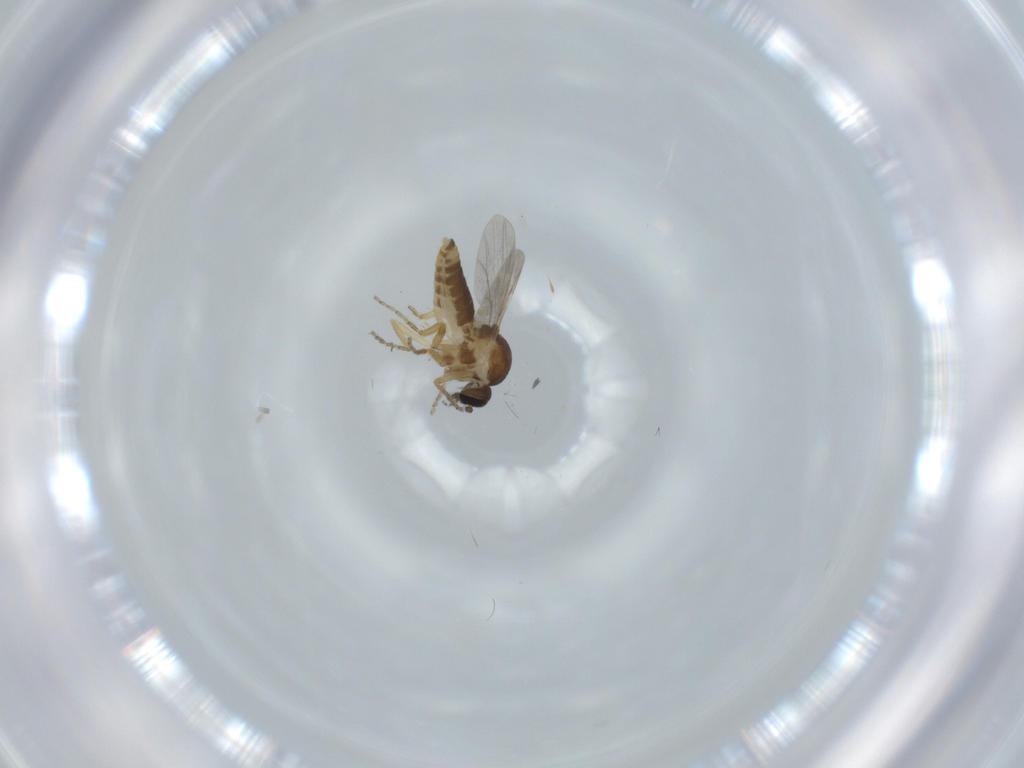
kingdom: Animalia
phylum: Arthropoda
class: Insecta
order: Diptera
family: Ceratopogonidae
